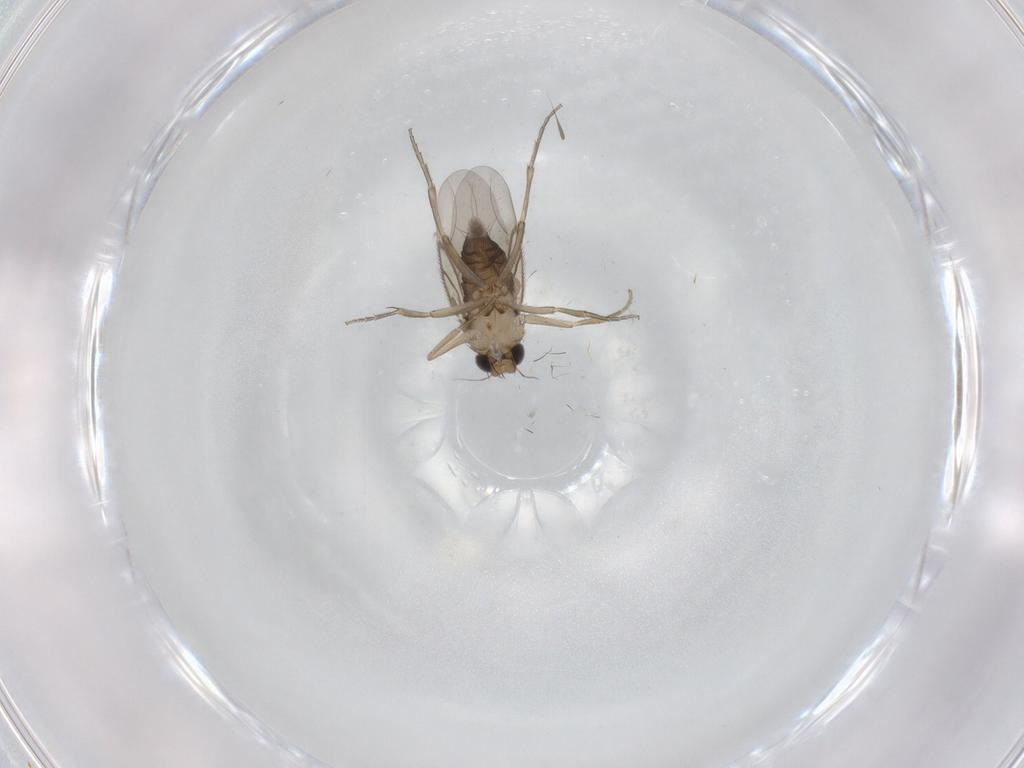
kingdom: Animalia
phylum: Arthropoda
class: Insecta
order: Diptera
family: Phoridae
